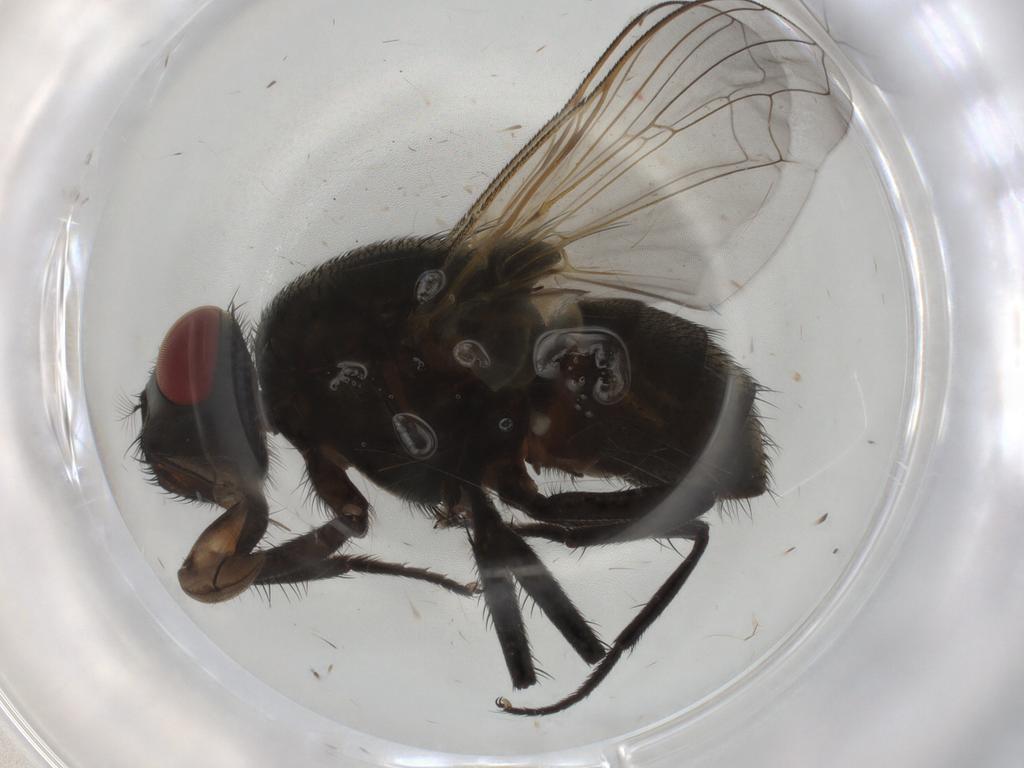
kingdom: Animalia
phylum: Arthropoda
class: Insecta
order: Diptera
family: Muscidae
